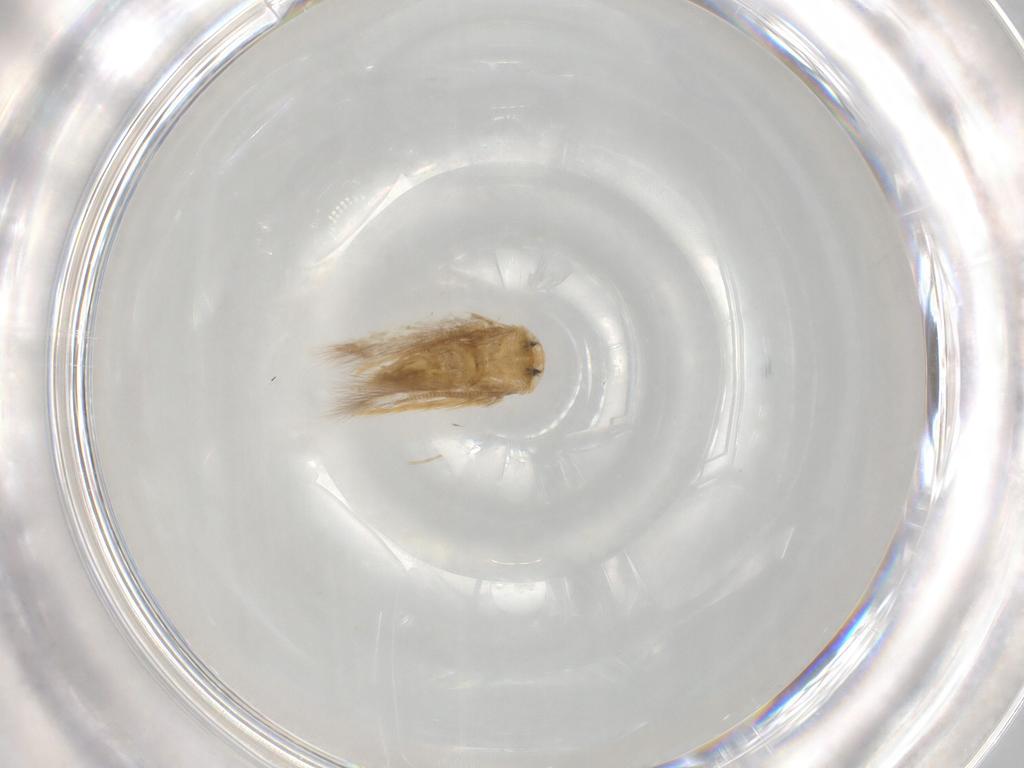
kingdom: Animalia
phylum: Arthropoda
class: Insecta
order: Lepidoptera
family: Opostegidae
